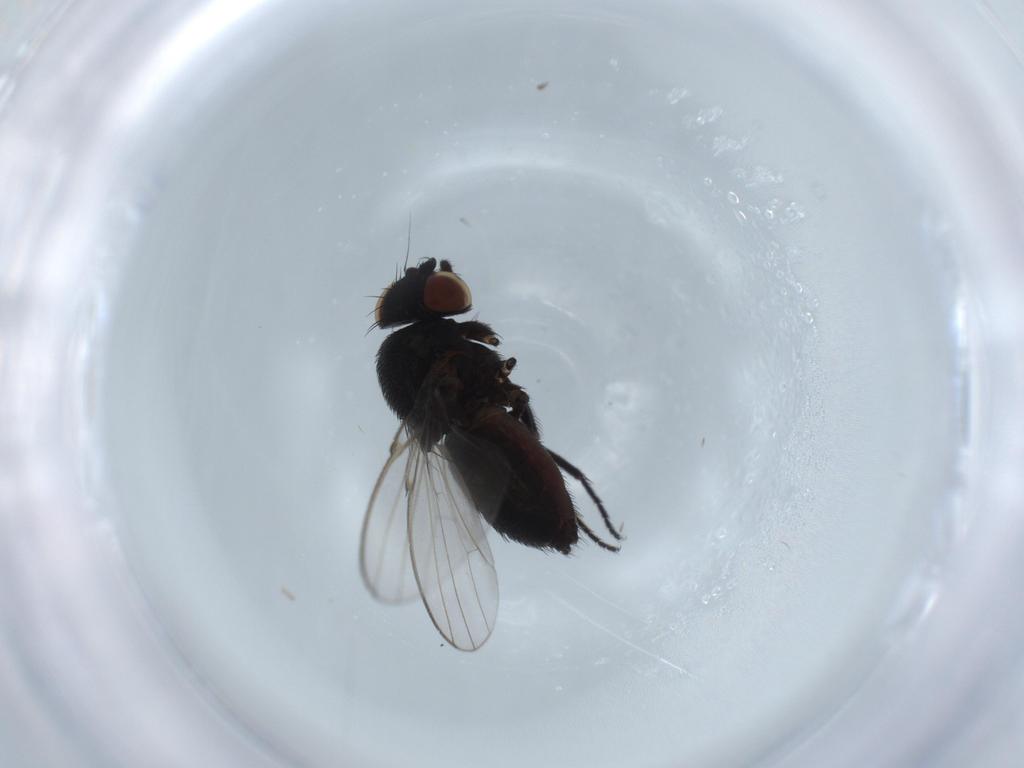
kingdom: Animalia
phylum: Arthropoda
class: Insecta
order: Diptera
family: Milichiidae
